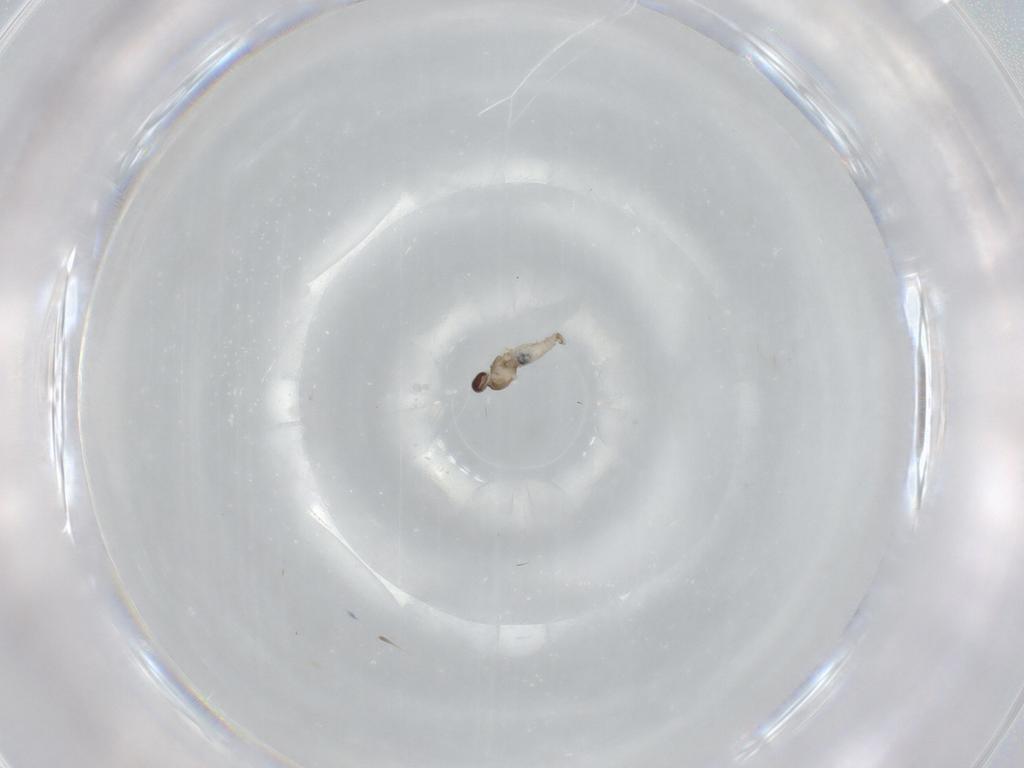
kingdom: Animalia
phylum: Arthropoda
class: Insecta
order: Diptera
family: Cecidomyiidae
